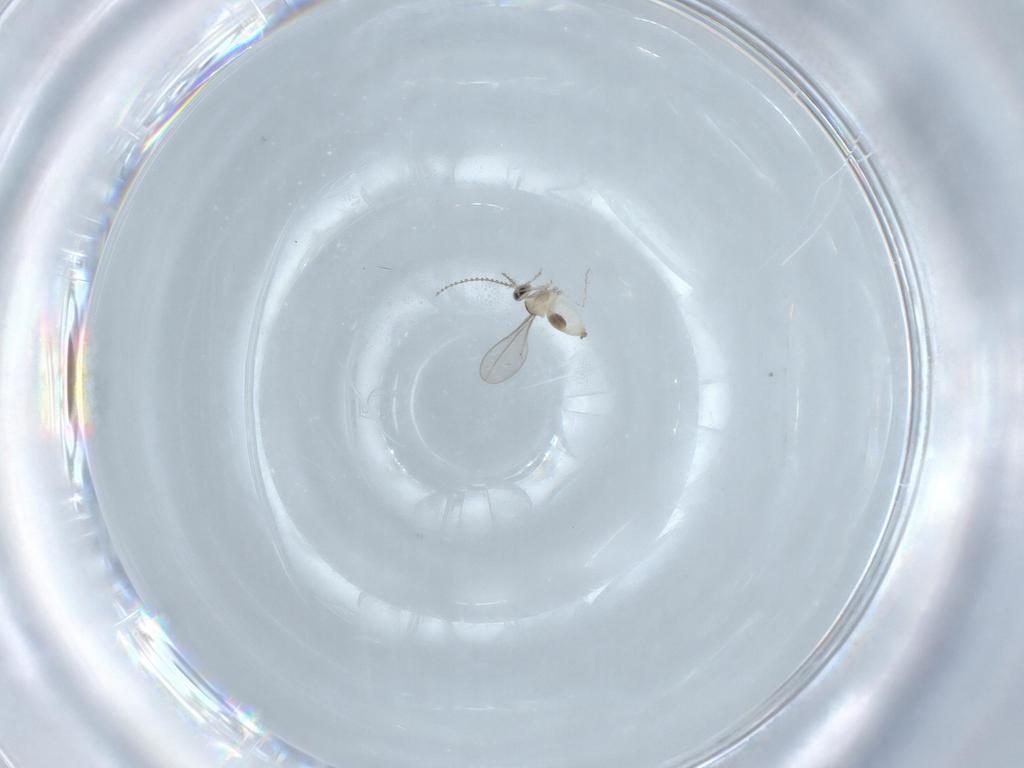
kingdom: Animalia
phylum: Arthropoda
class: Insecta
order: Diptera
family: Cecidomyiidae
